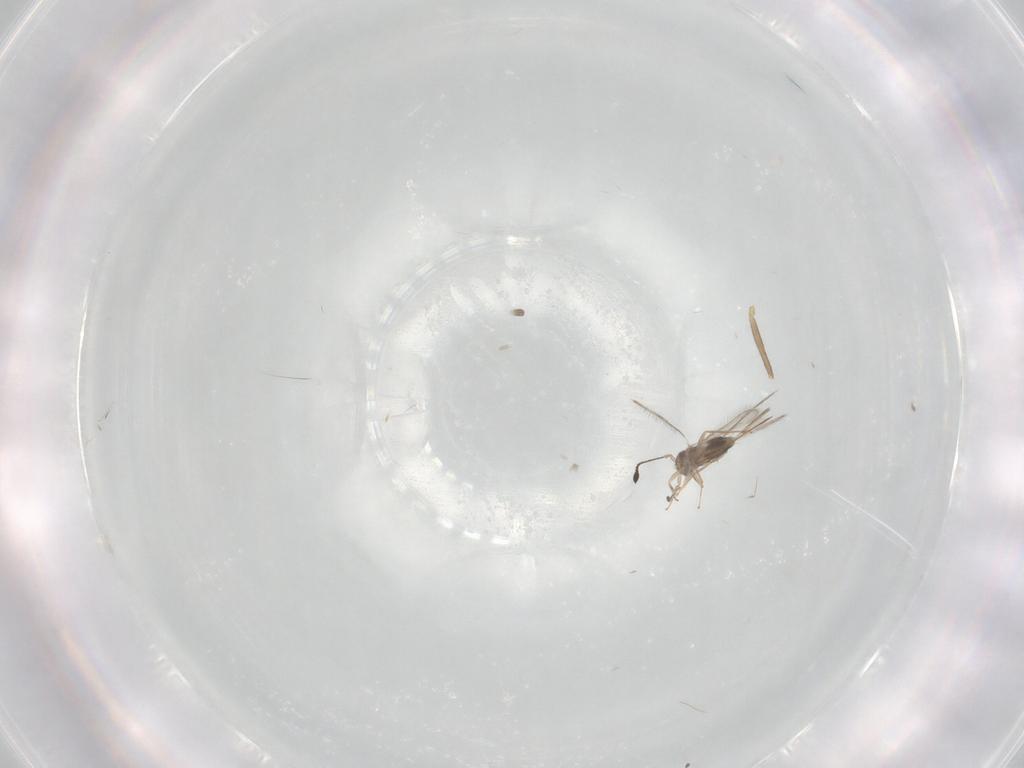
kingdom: Animalia
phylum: Arthropoda
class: Insecta
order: Hymenoptera
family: Mymaridae
